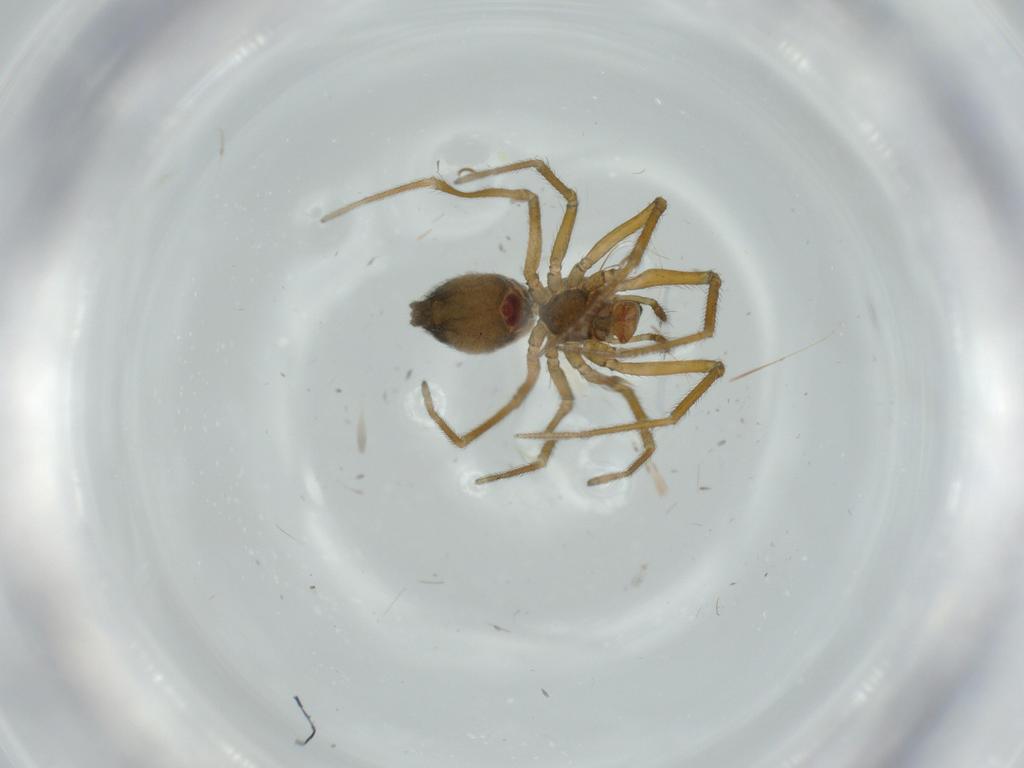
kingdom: Animalia
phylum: Arthropoda
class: Arachnida
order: Araneae
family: Linyphiidae
